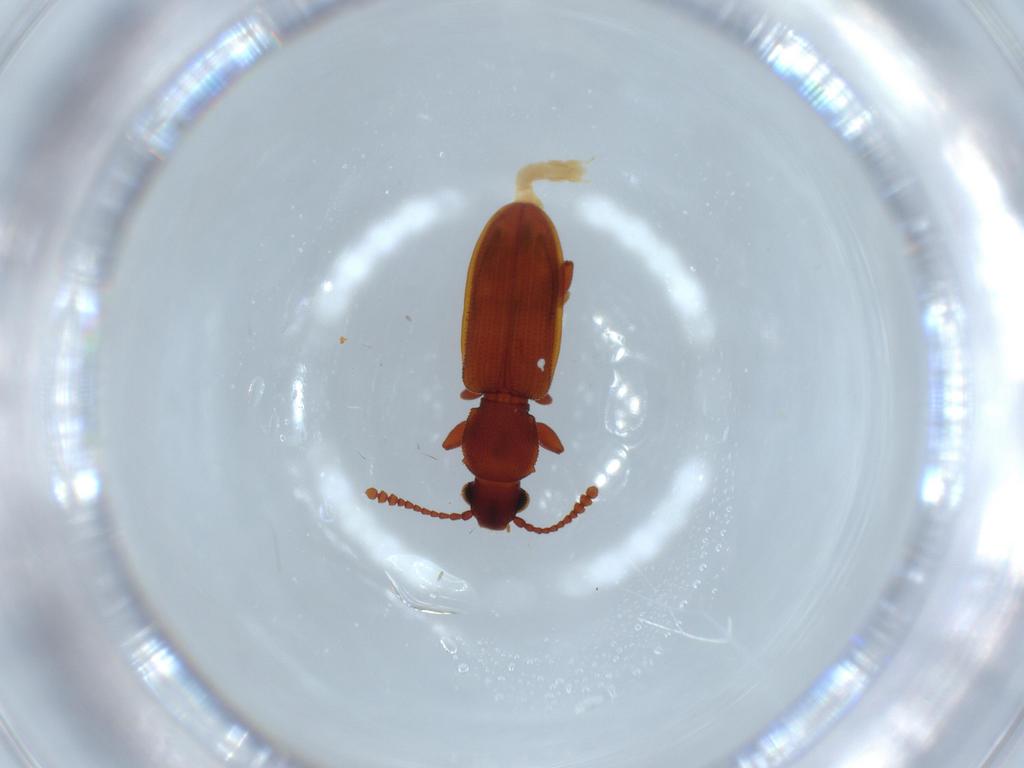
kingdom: Animalia
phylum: Arthropoda
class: Insecta
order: Coleoptera
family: Silvanidae
